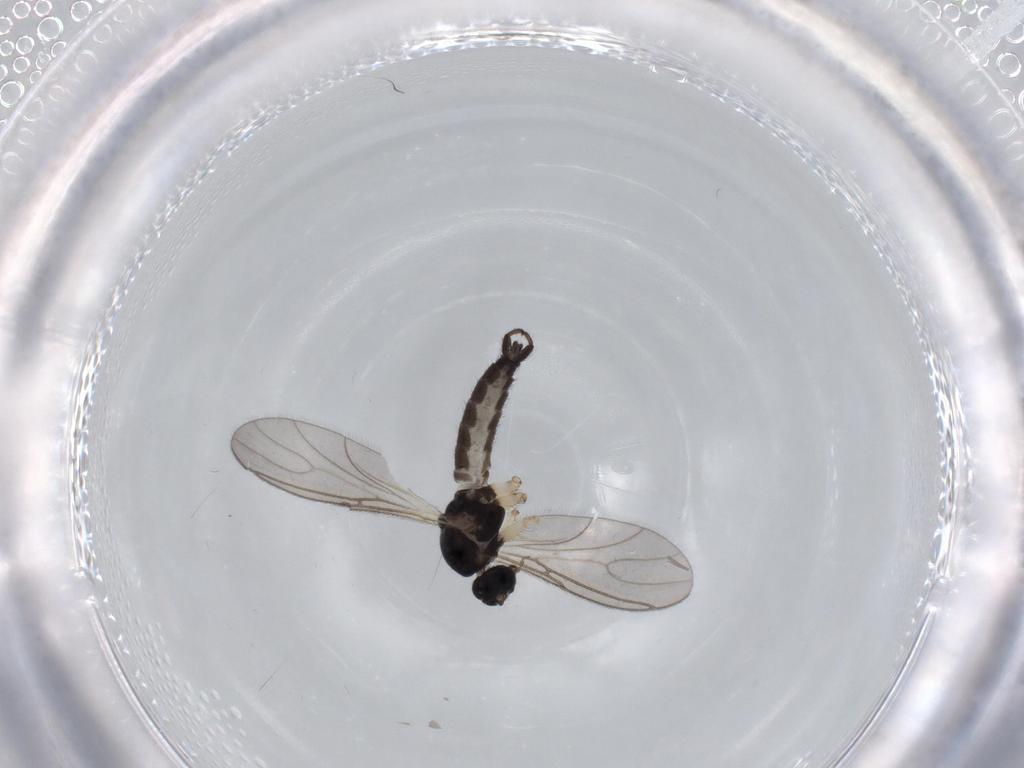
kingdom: Animalia
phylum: Arthropoda
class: Insecta
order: Diptera
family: Sciaridae
